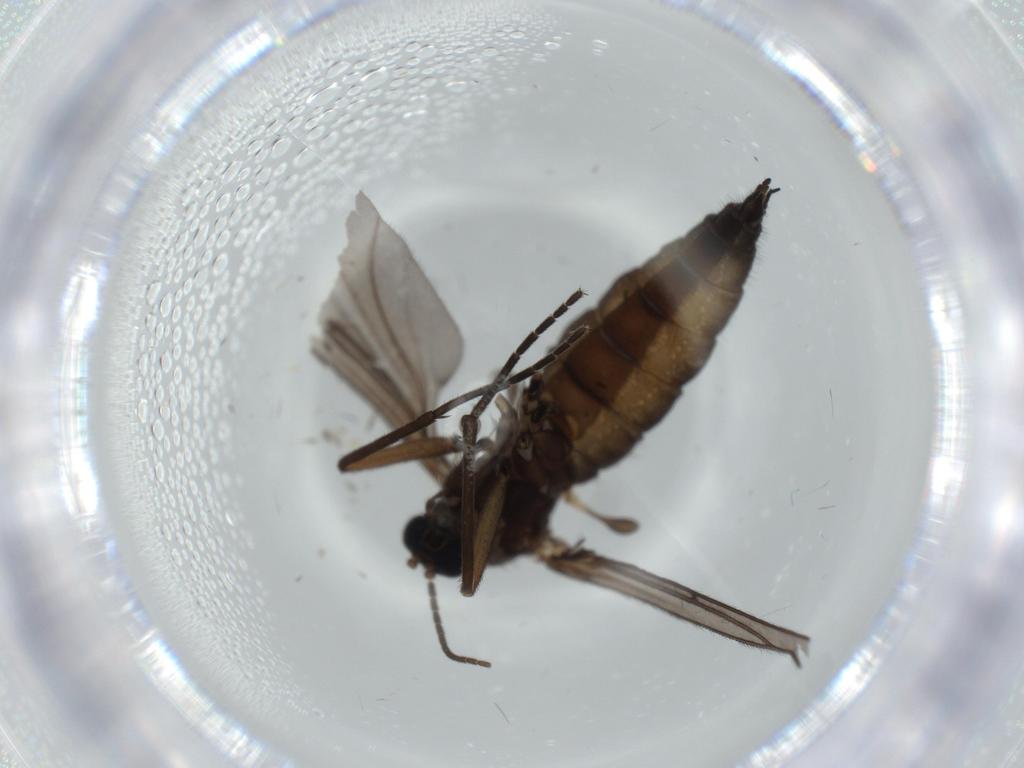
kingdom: Animalia
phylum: Arthropoda
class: Insecta
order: Diptera
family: Sciaridae
